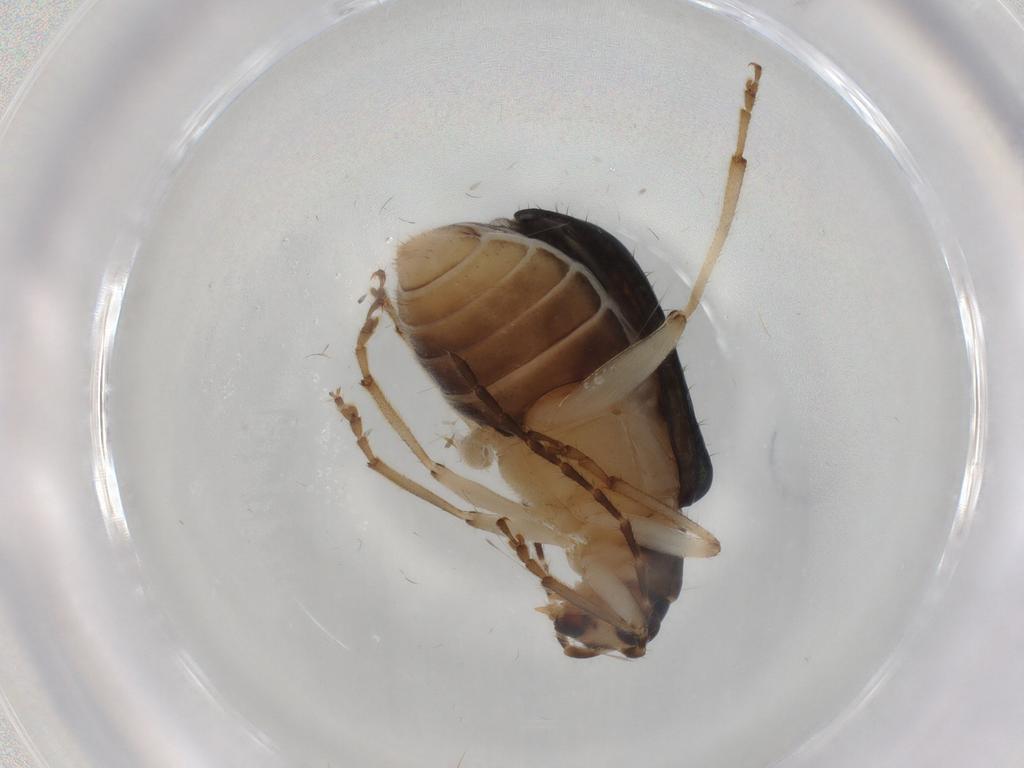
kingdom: Animalia
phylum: Arthropoda
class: Insecta
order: Coleoptera
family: Chrysomelidae
